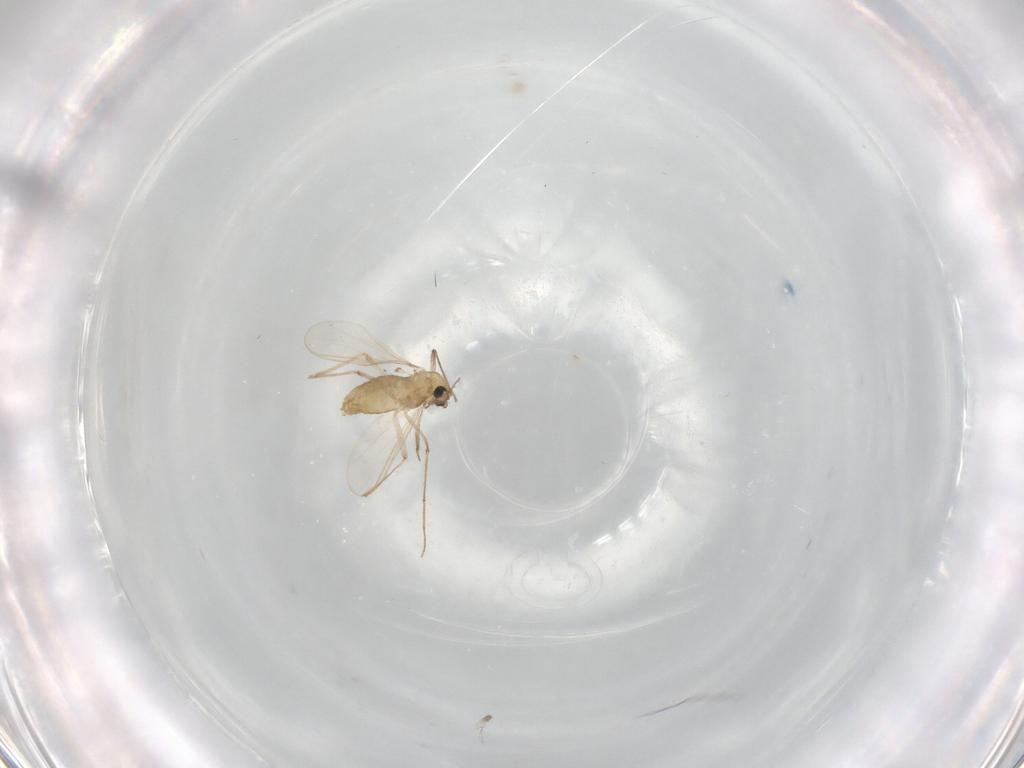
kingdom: Animalia
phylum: Arthropoda
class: Insecta
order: Diptera
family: Chironomidae
